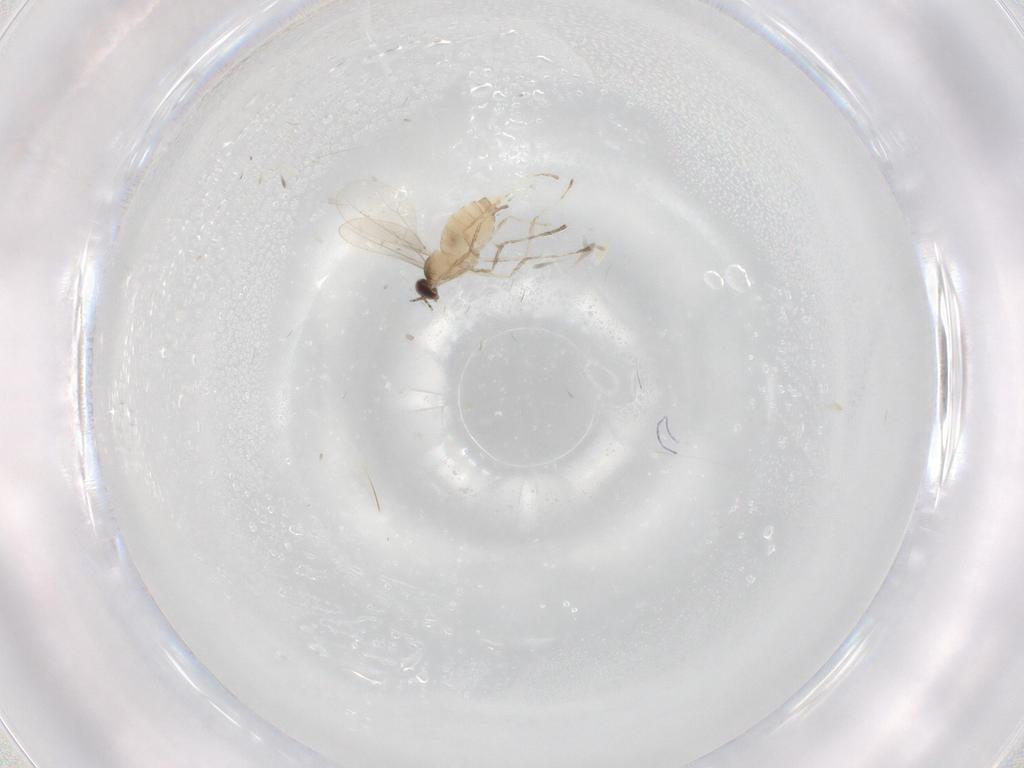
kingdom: Animalia
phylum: Arthropoda
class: Insecta
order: Diptera
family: Cecidomyiidae
